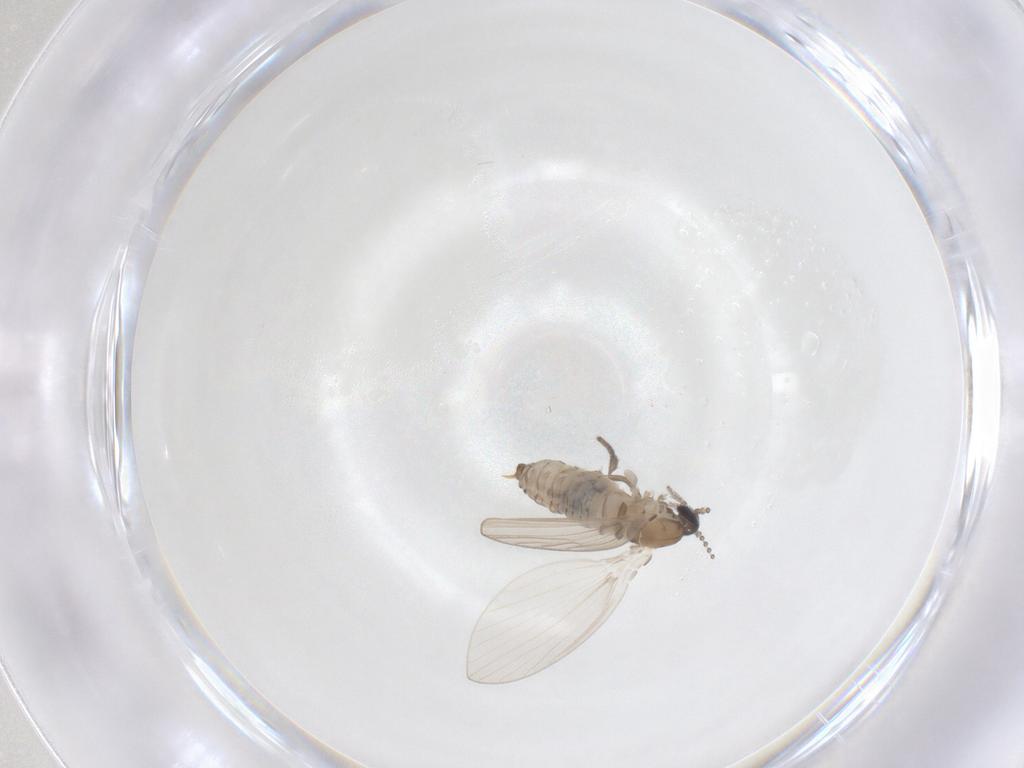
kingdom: Animalia
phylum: Arthropoda
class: Insecta
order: Diptera
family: Psychodidae
